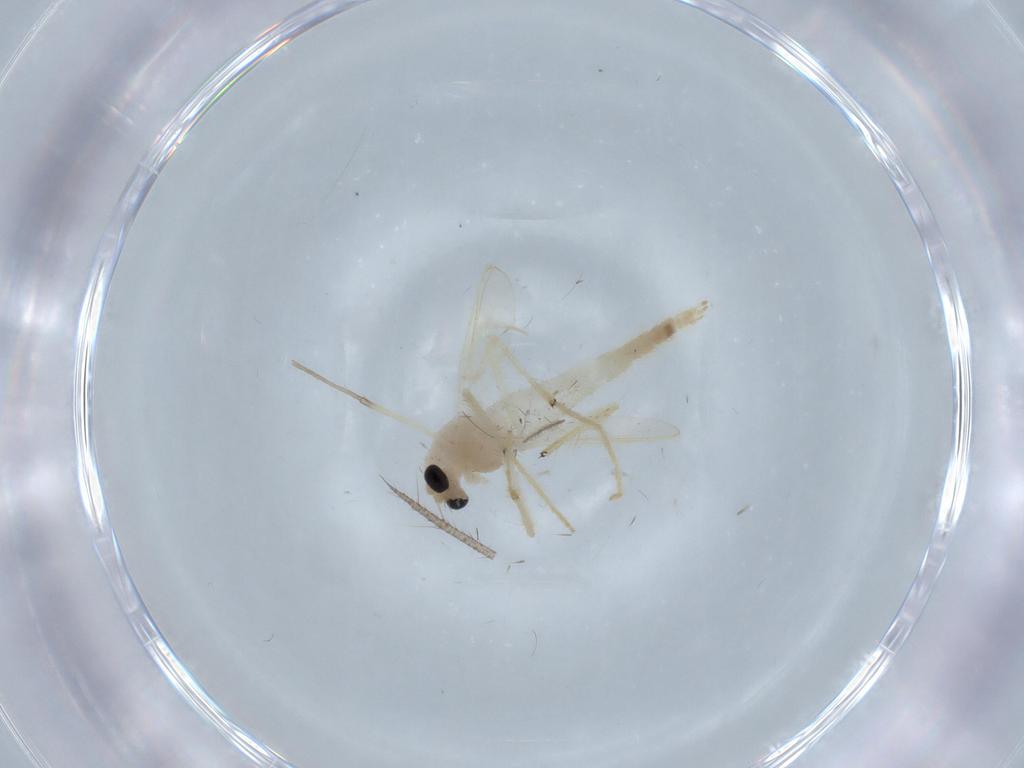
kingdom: Animalia
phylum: Arthropoda
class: Insecta
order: Diptera
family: Chironomidae
